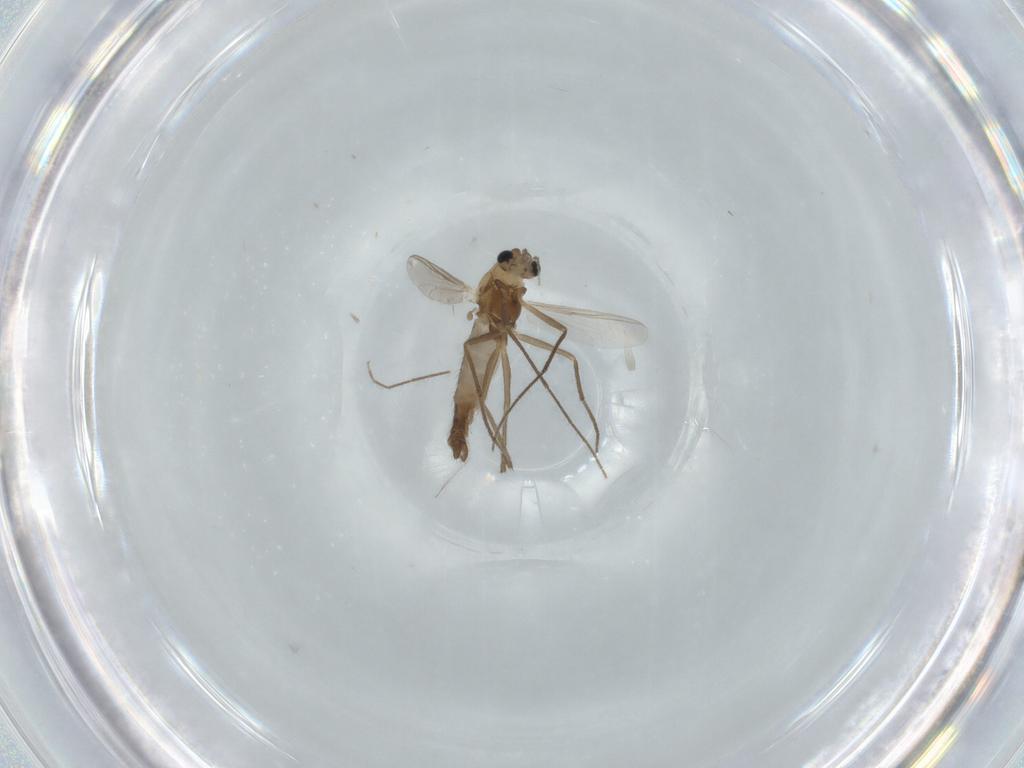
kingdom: Animalia
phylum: Arthropoda
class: Insecta
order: Diptera
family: Chironomidae
